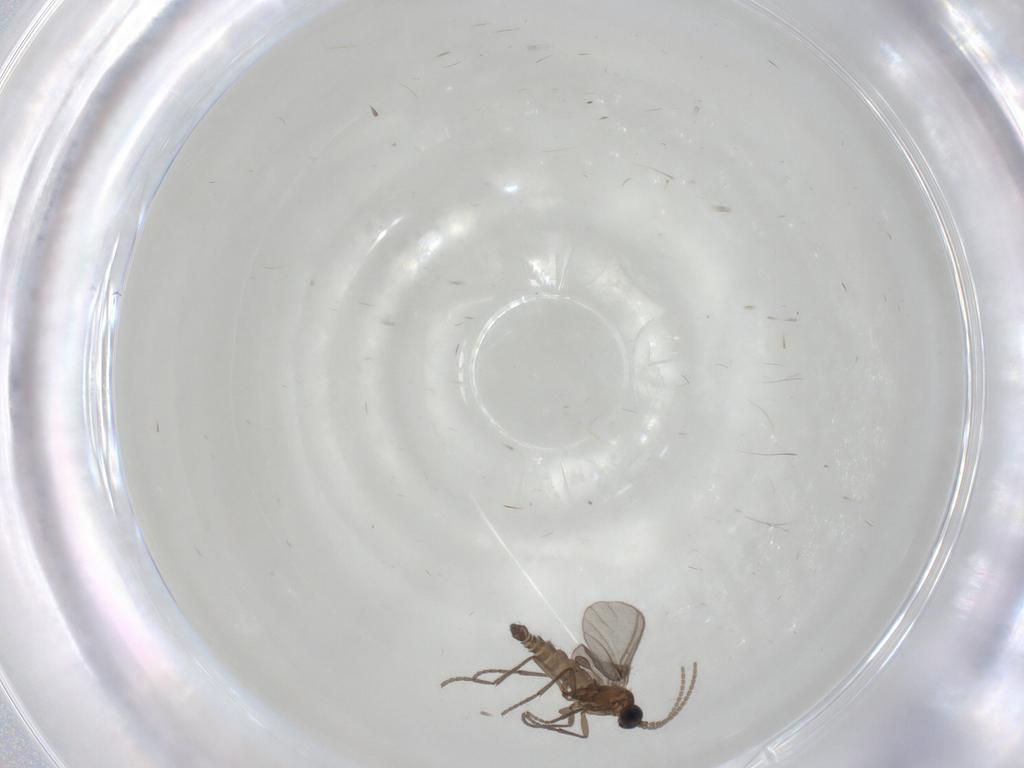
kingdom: Animalia
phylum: Arthropoda
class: Insecta
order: Diptera
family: Sciaridae
